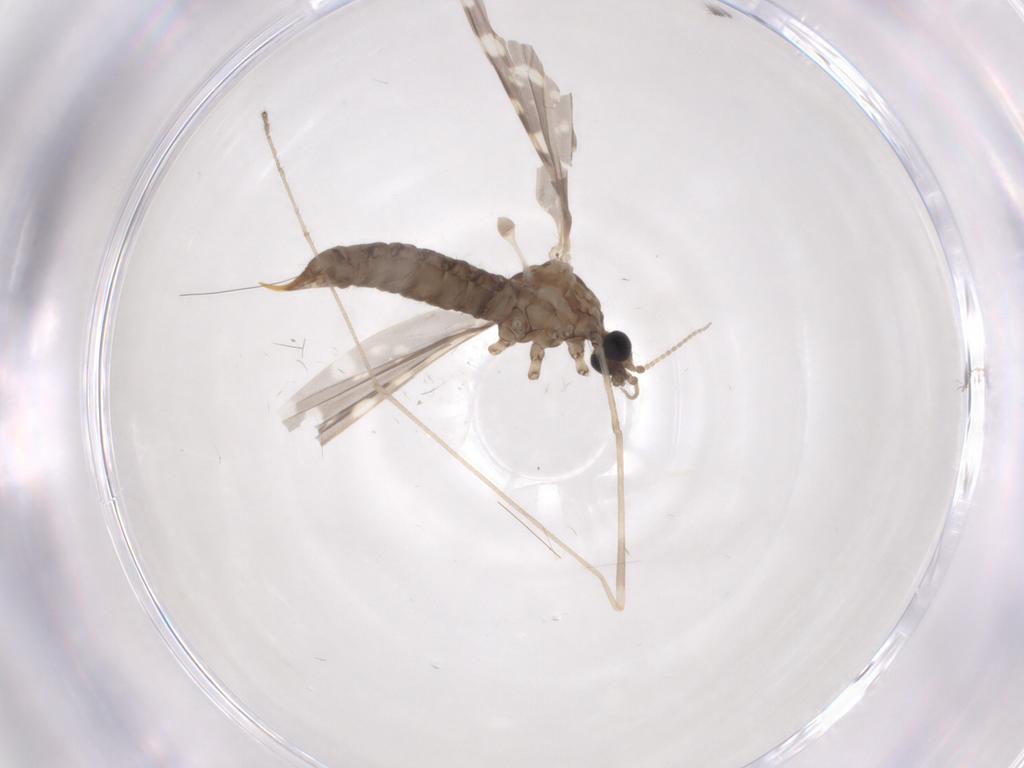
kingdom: Animalia
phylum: Arthropoda
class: Insecta
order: Diptera
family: Limoniidae
